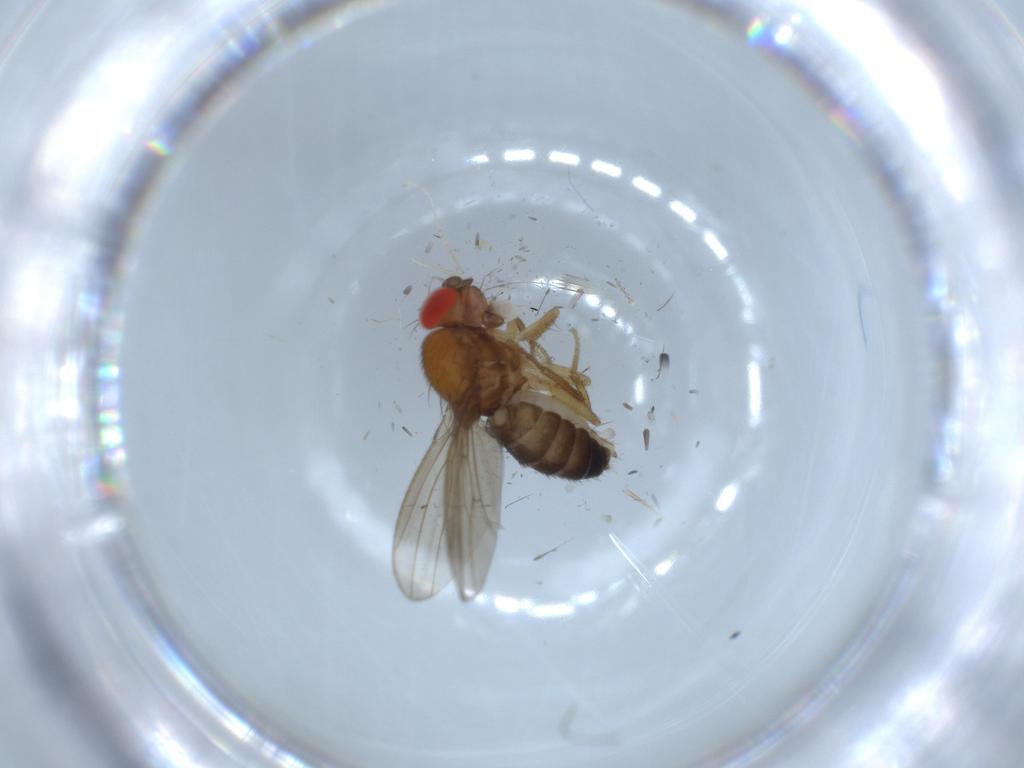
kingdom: Animalia
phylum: Arthropoda
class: Insecta
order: Diptera
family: Drosophilidae
